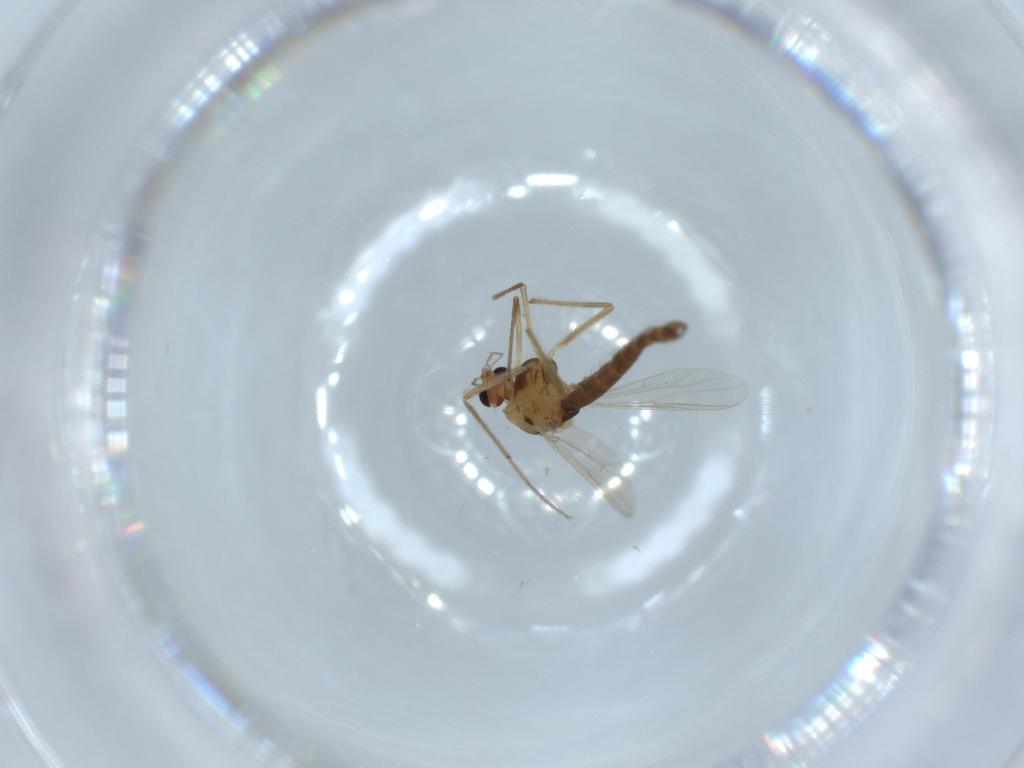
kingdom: Animalia
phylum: Arthropoda
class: Insecta
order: Diptera
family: Chironomidae
